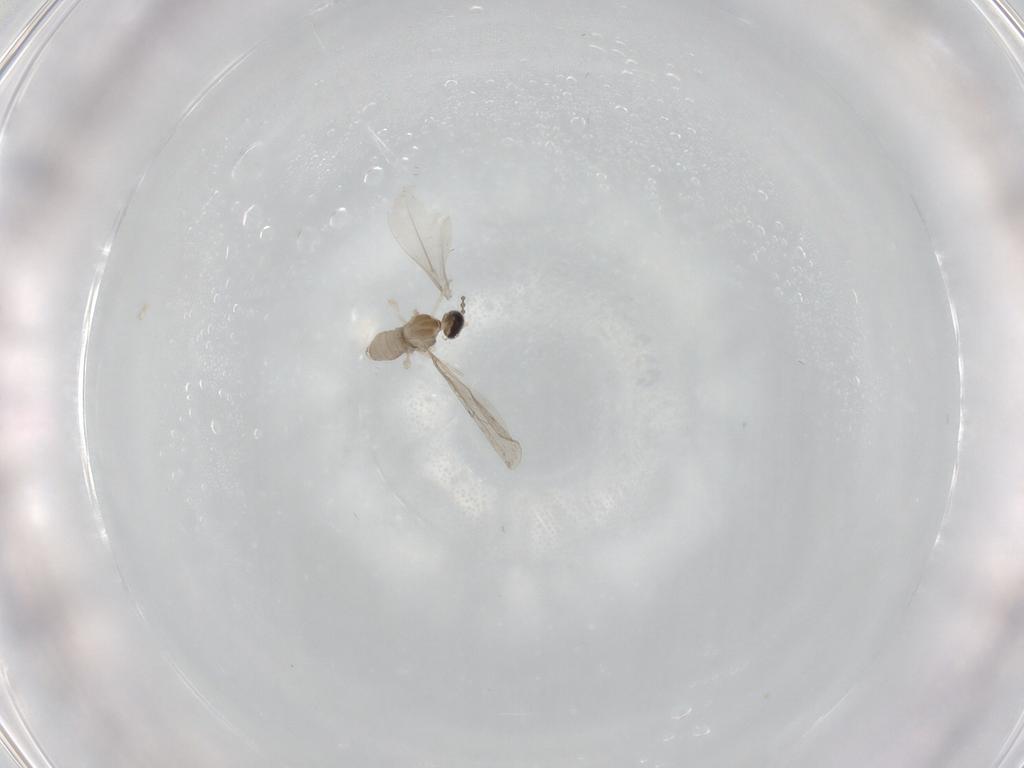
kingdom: Animalia
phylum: Arthropoda
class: Insecta
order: Diptera
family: Cecidomyiidae
